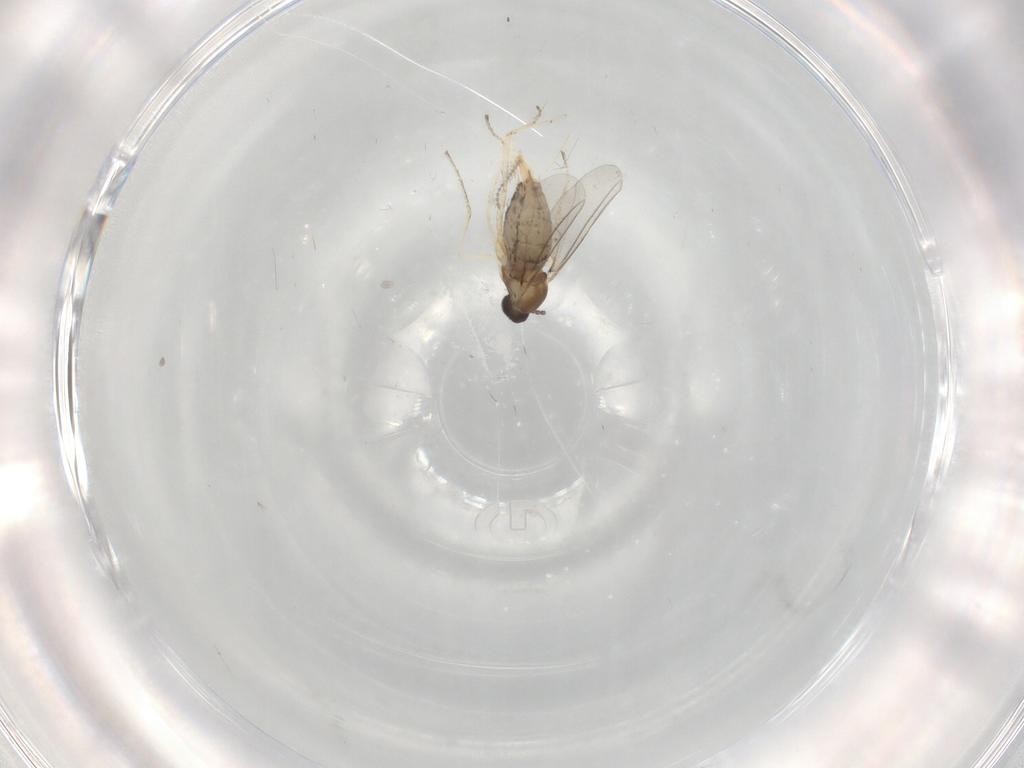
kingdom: Animalia
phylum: Arthropoda
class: Insecta
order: Diptera
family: Cecidomyiidae
